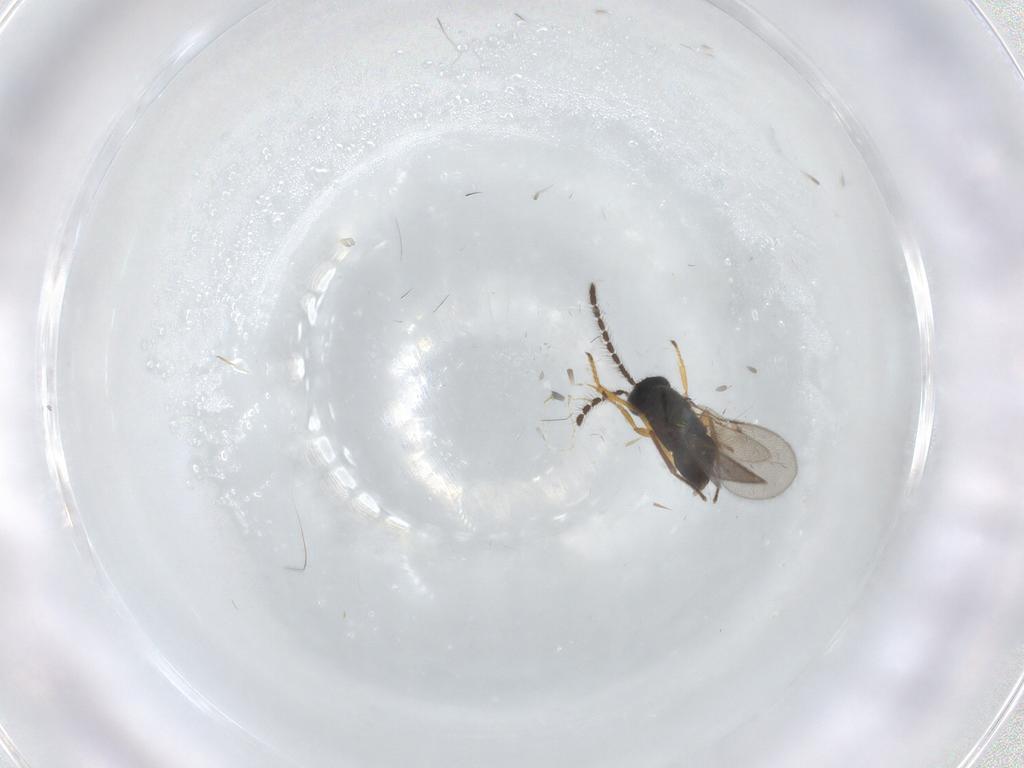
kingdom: Animalia
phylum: Arthropoda
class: Insecta
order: Hymenoptera
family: Encyrtidae
